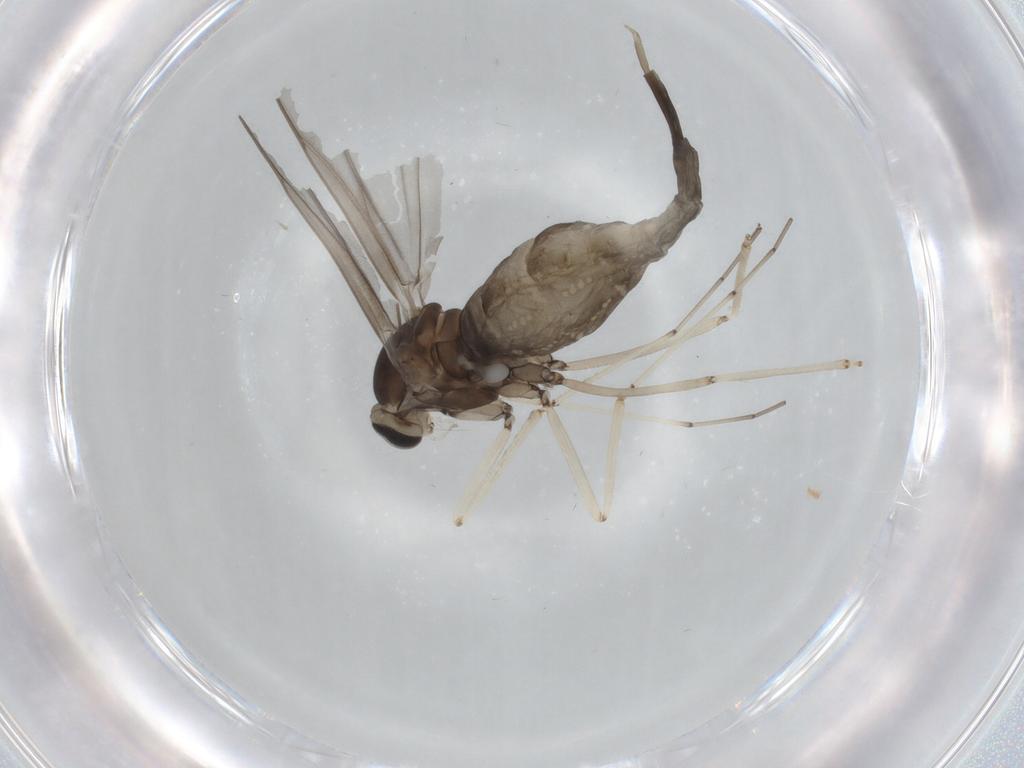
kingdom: Animalia
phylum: Arthropoda
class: Insecta
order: Diptera
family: Cecidomyiidae
